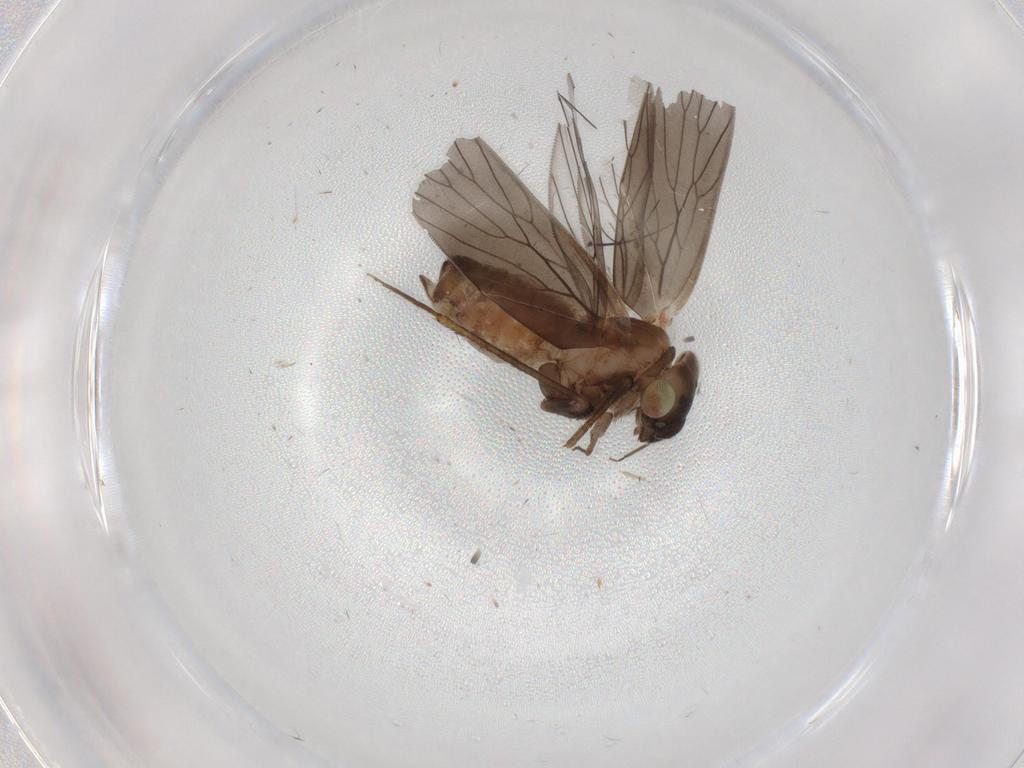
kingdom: Animalia
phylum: Arthropoda
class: Insecta
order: Psocodea
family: Lepidopsocidae
